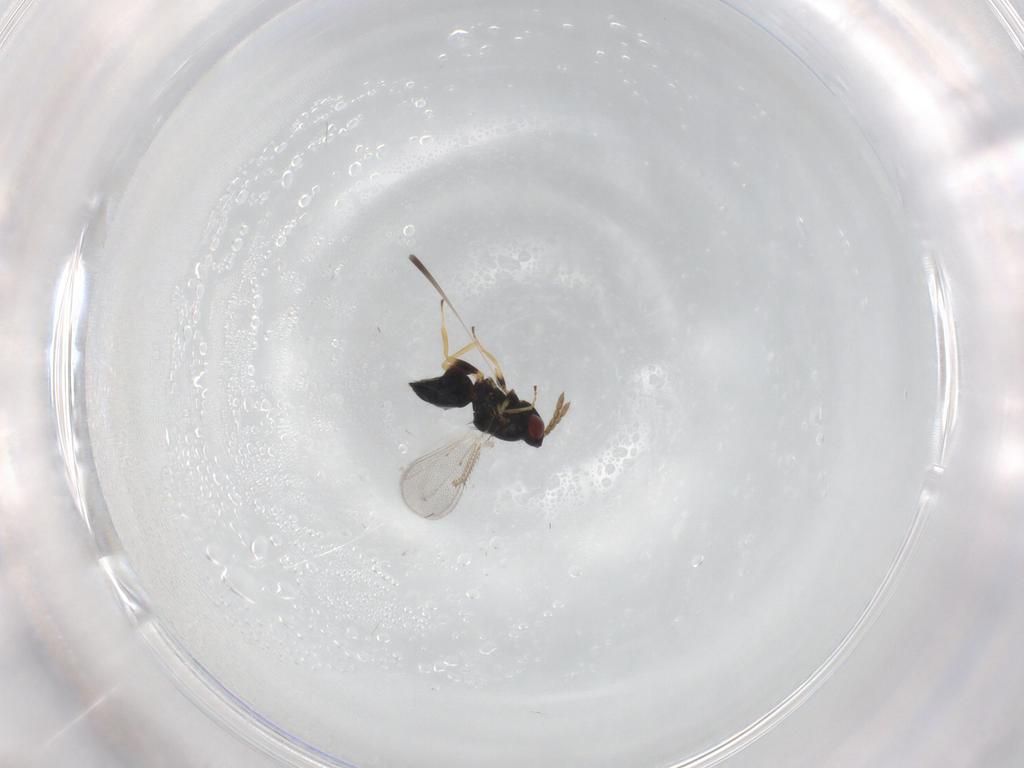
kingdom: Animalia
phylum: Arthropoda
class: Insecta
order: Hymenoptera
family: Eulophidae
